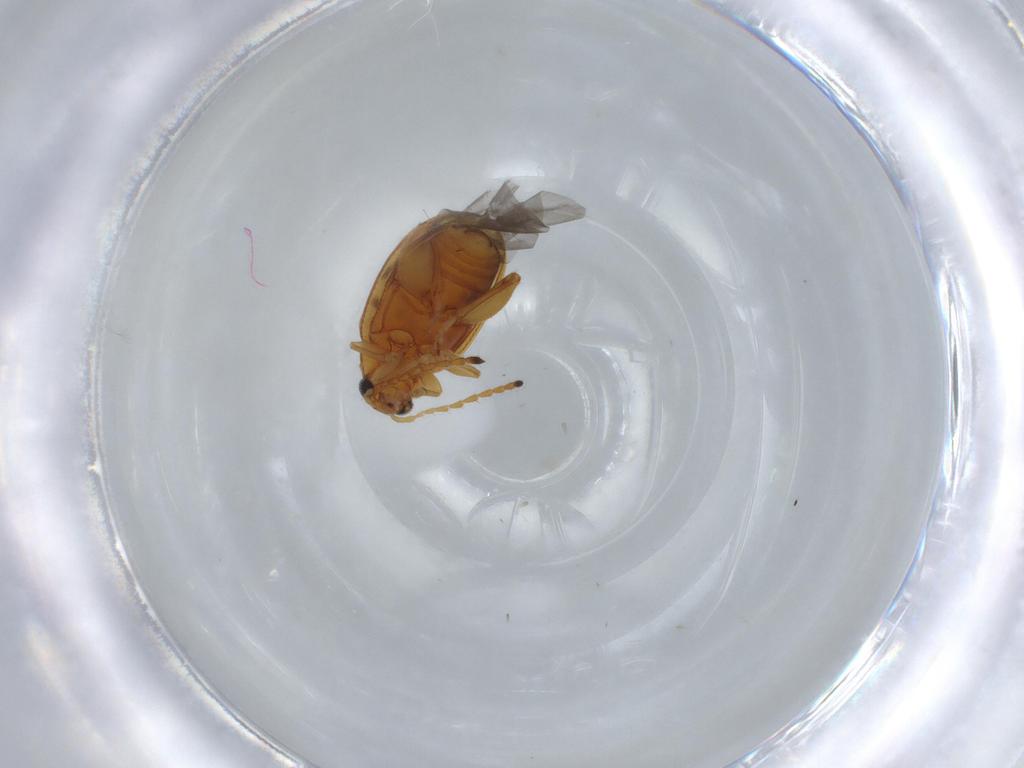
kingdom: Animalia
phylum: Arthropoda
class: Insecta
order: Coleoptera
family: Chrysomelidae
